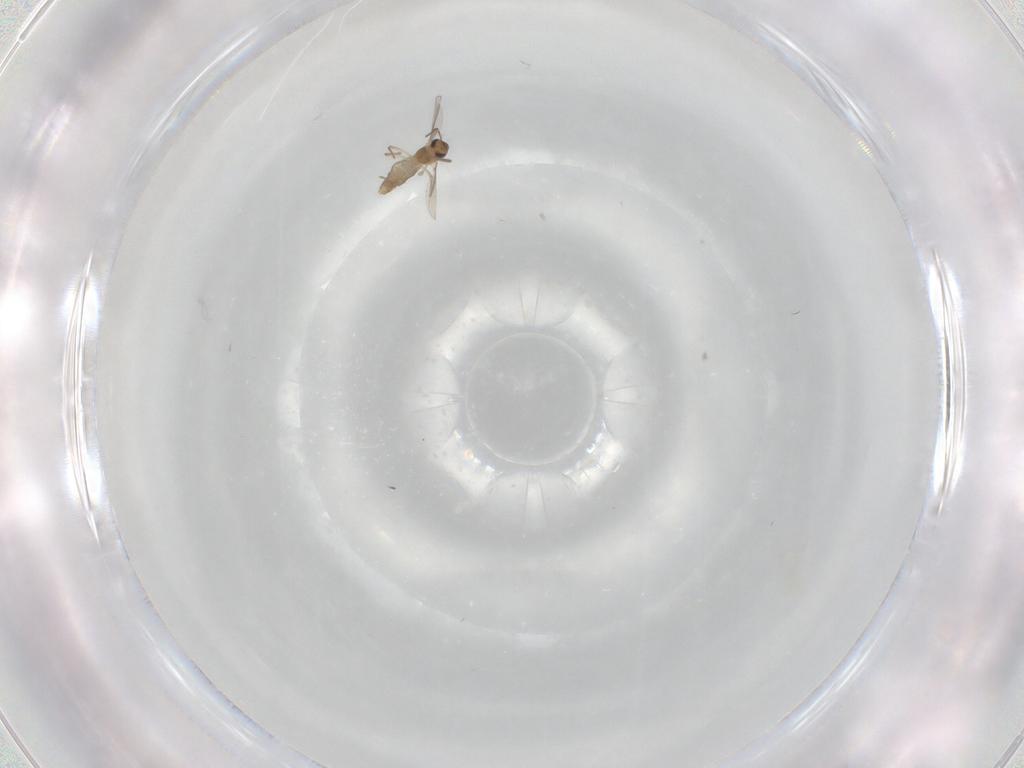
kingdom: Animalia
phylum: Arthropoda
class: Insecta
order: Diptera
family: Chironomidae
